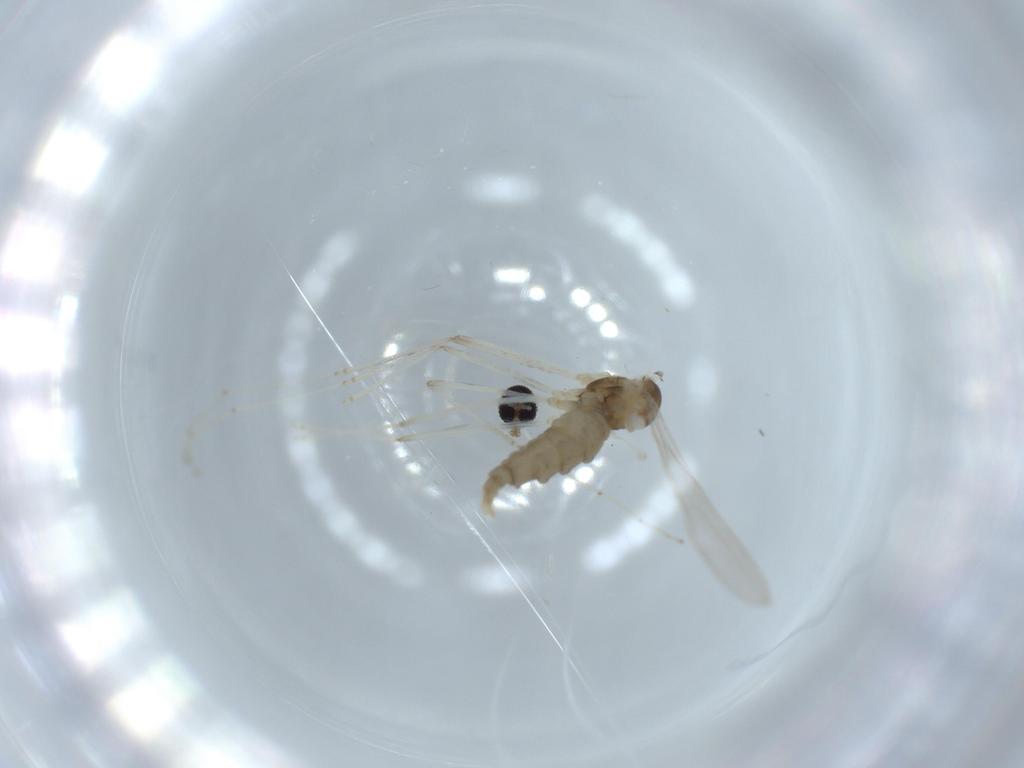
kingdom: Animalia
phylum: Arthropoda
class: Insecta
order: Diptera
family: Cecidomyiidae
